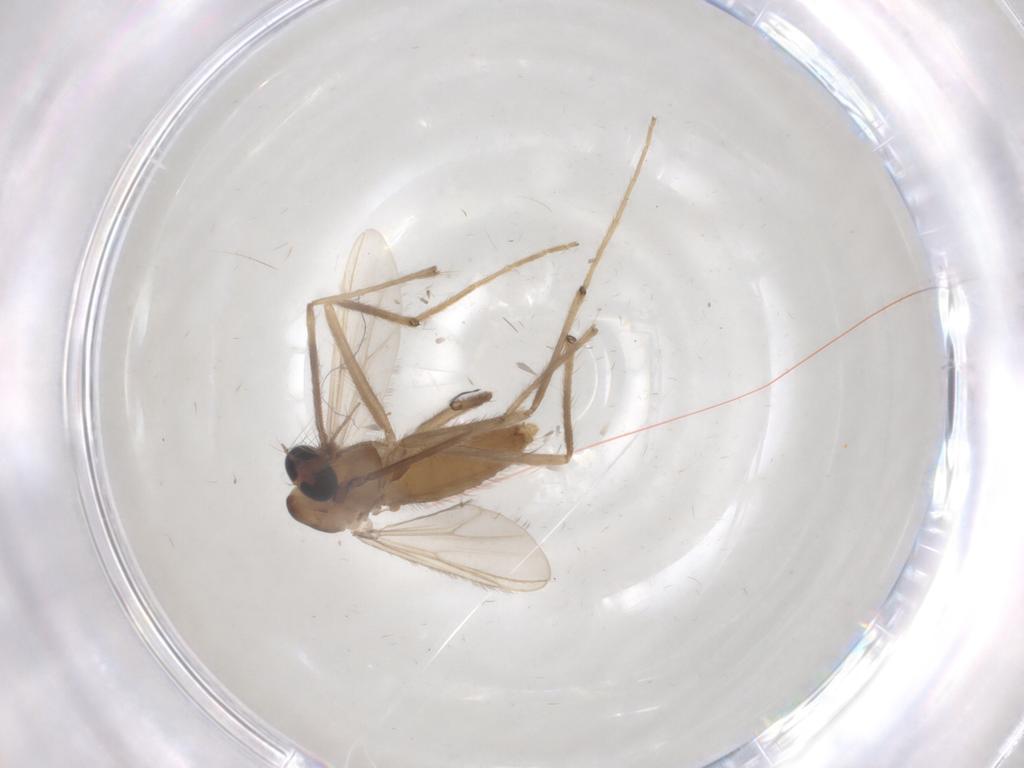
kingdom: Animalia
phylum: Arthropoda
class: Insecta
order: Diptera
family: Chironomidae
